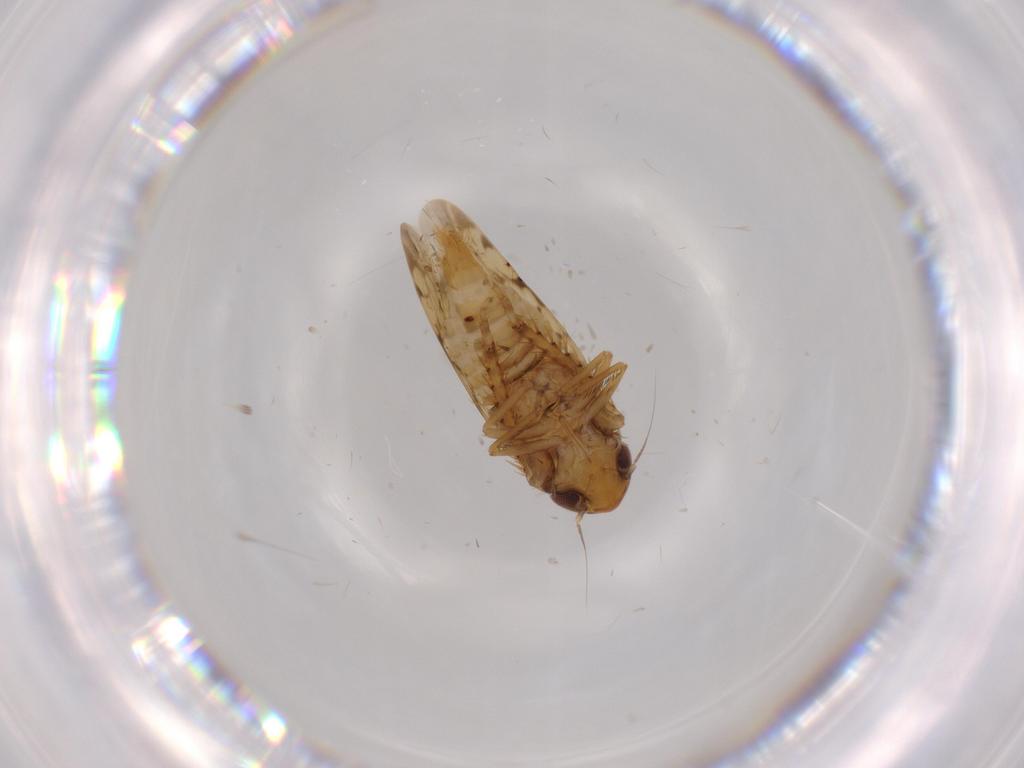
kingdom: Animalia
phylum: Arthropoda
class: Insecta
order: Hemiptera
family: Cicadellidae
